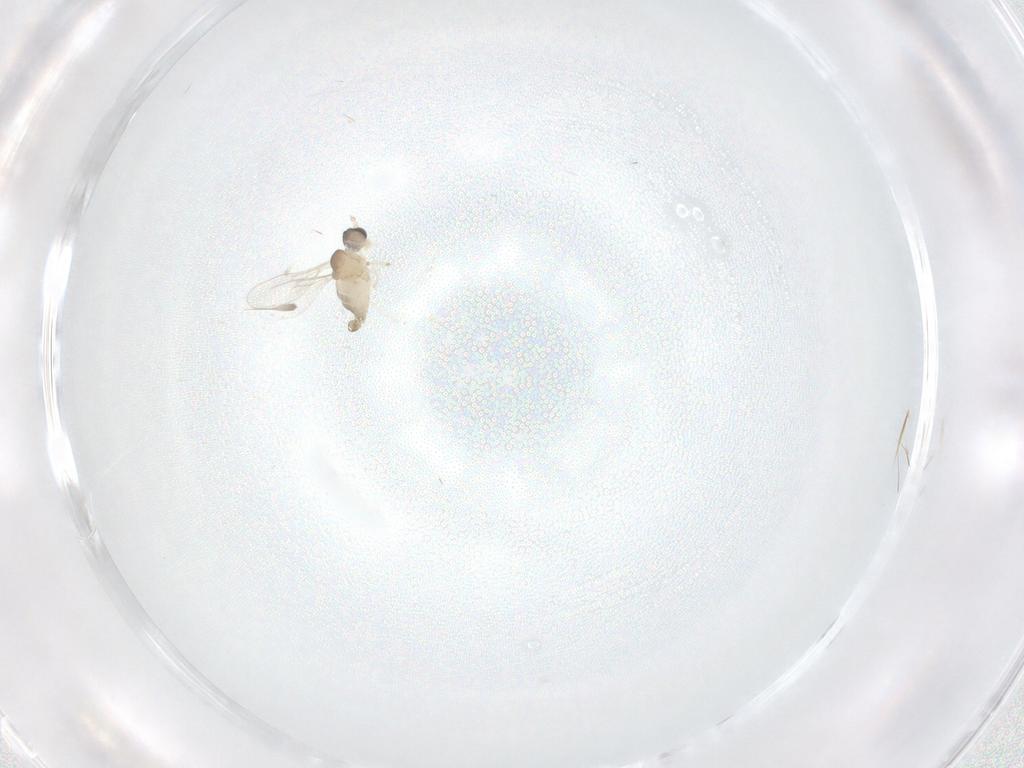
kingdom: Animalia
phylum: Arthropoda
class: Insecta
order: Diptera
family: Cecidomyiidae
